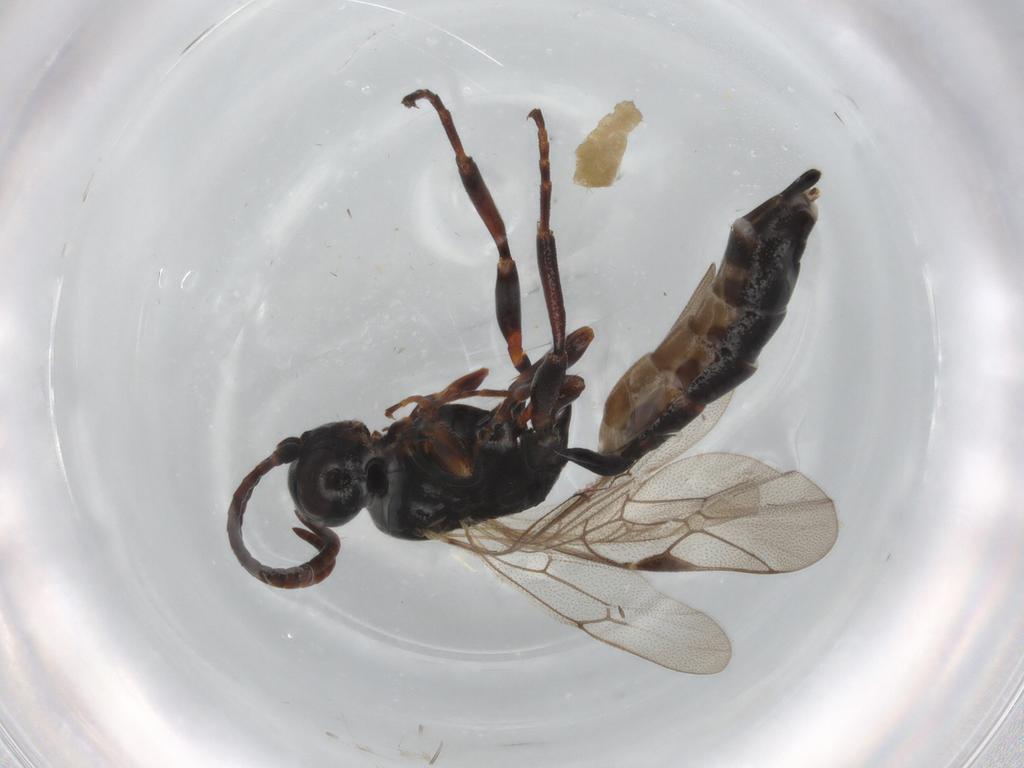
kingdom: Animalia
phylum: Arthropoda
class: Insecta
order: Hymenoptera
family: Ichneumonidae
